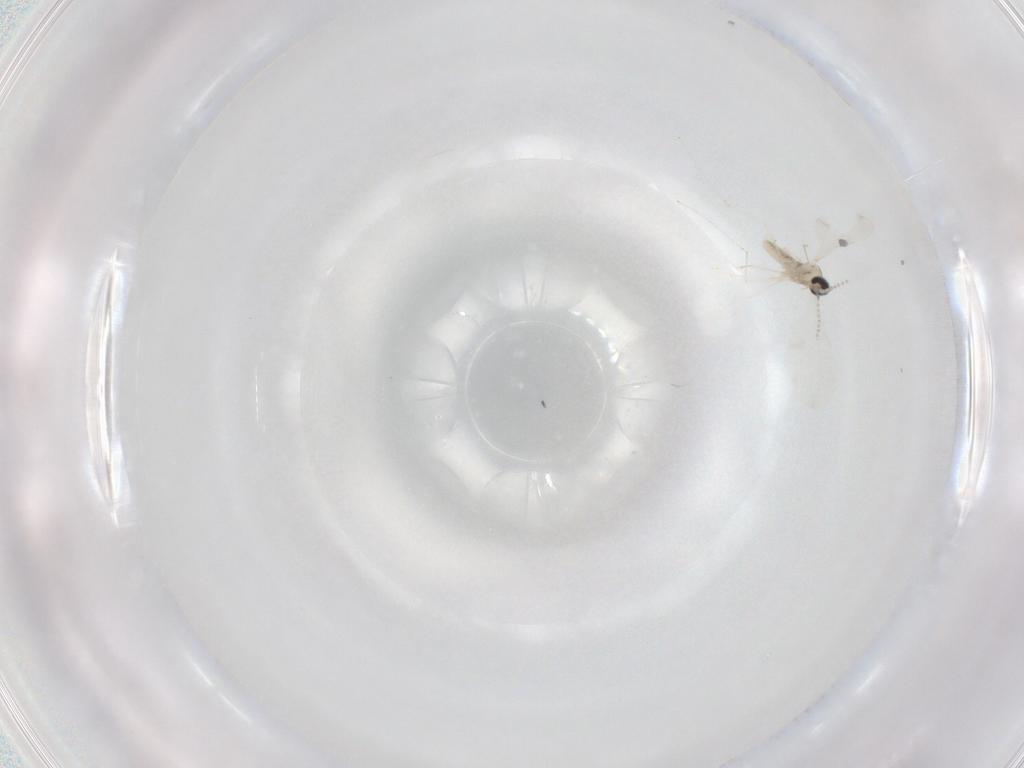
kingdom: Animalia
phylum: Arthropoda
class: Insecta
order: Diptera
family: Cecidomyiidae
